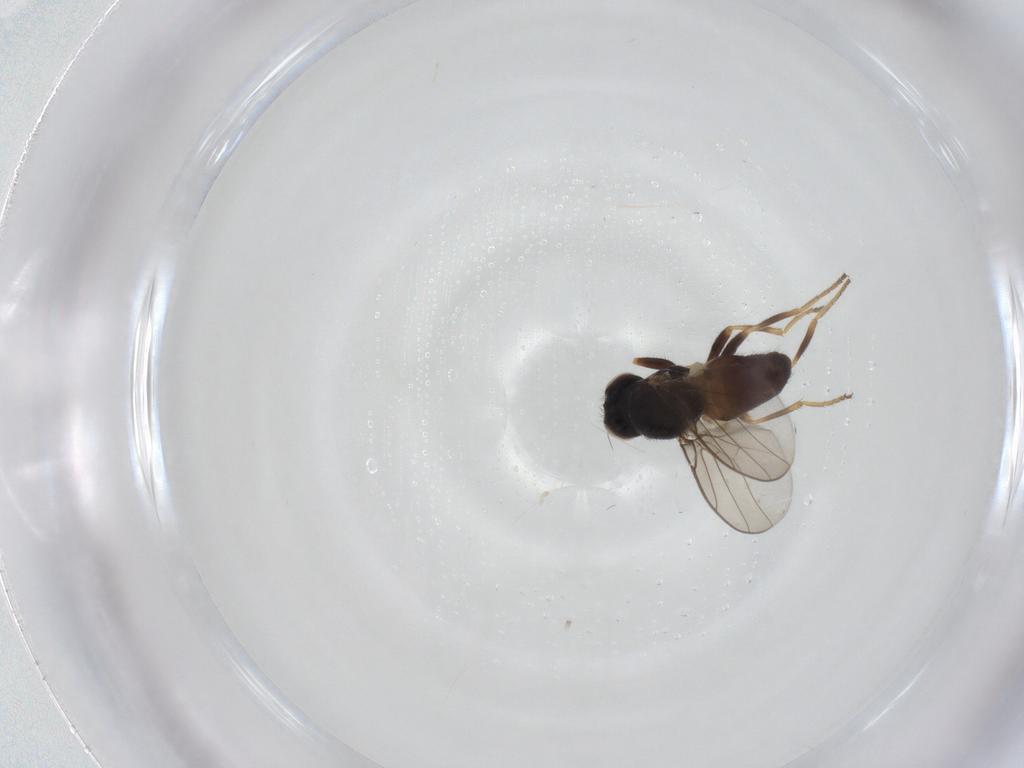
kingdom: Animalia
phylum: Arthropoda
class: Insecta
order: Diptera
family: Chloropidae
